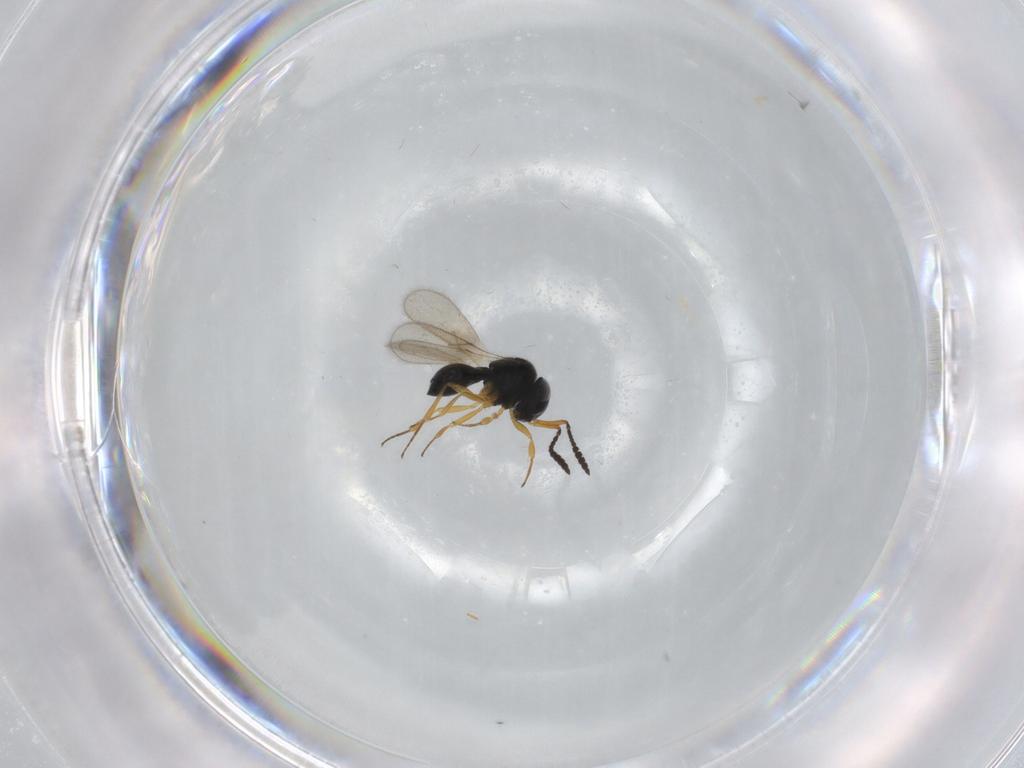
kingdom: Animalia
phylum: Arthropoda
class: Insecta
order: Hymenoptera
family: Scelionidae
